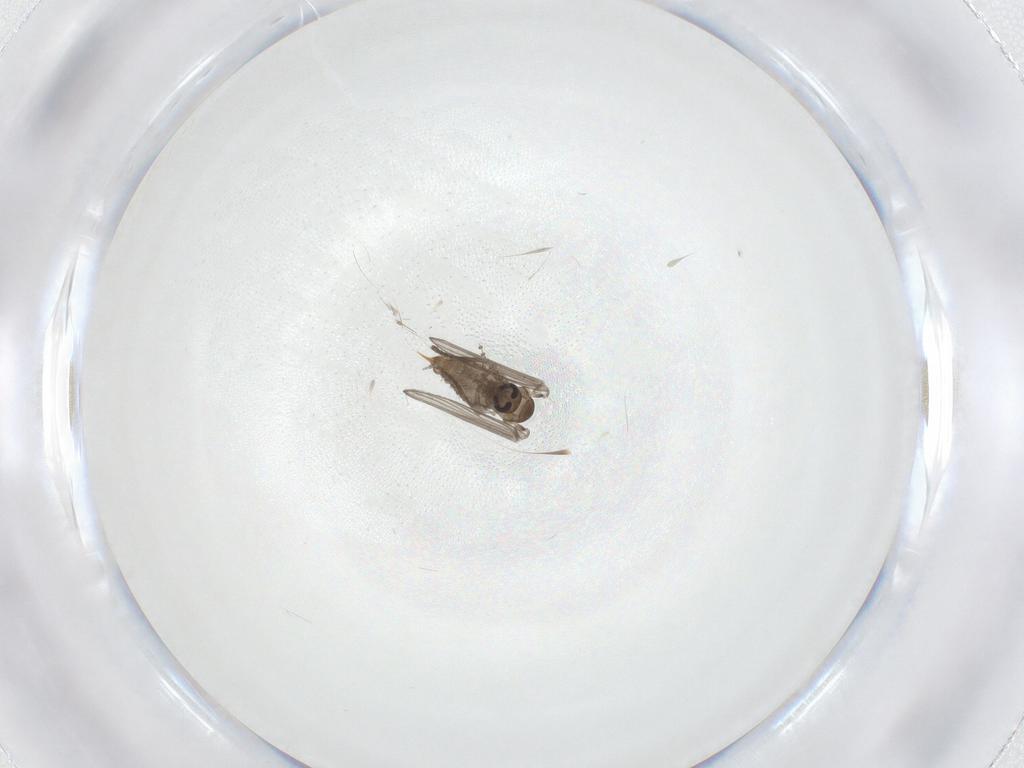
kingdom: Animalia
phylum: Arthropoda
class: Insecta
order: Diptera
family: Psychodidae
